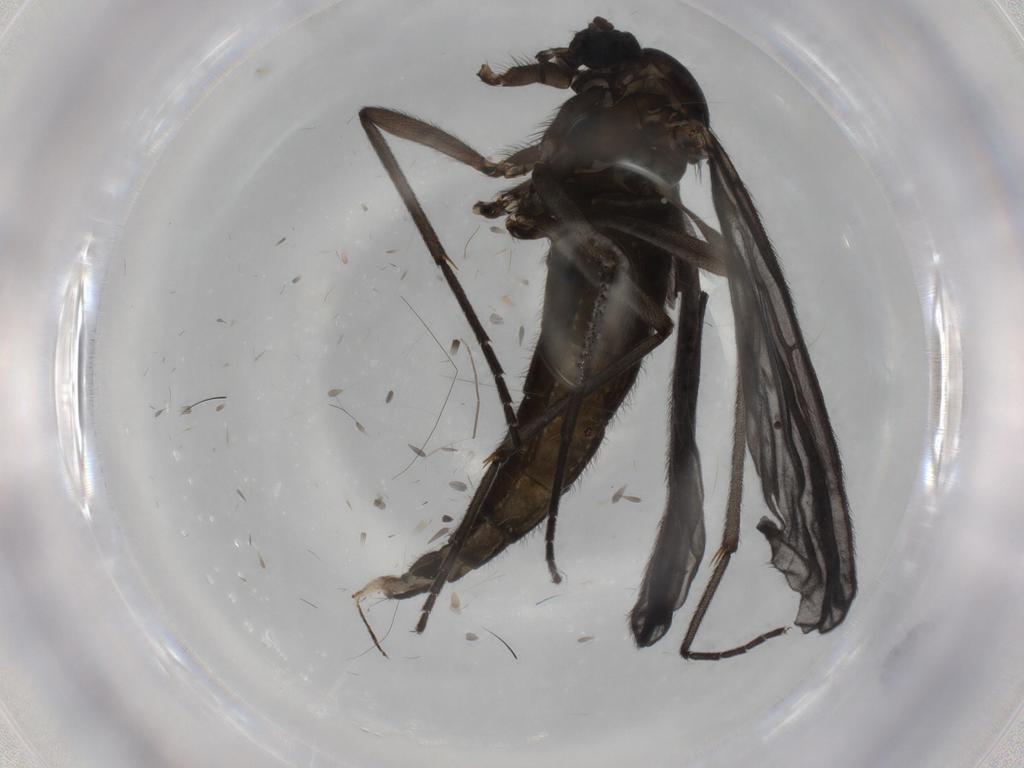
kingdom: Animalia
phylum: Arthropoda
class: Insecta
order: Diptera
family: Sciaridae
